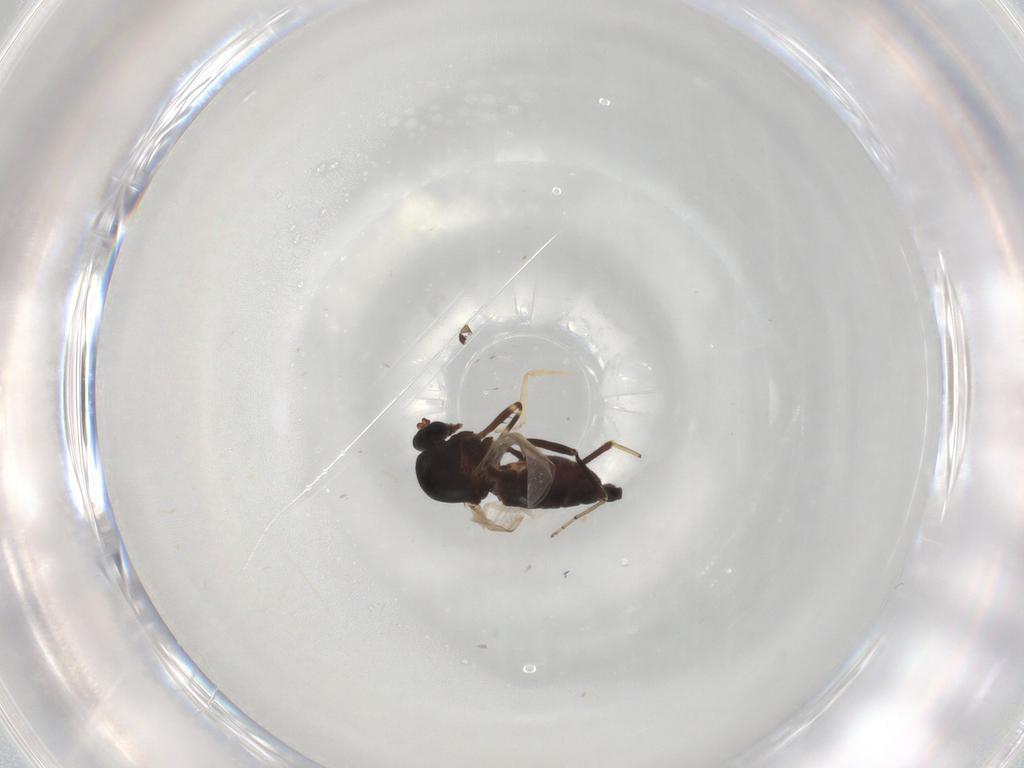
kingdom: Animalia
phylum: Arthropoda
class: Insecta
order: Diptera
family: Ceratopogonidae
